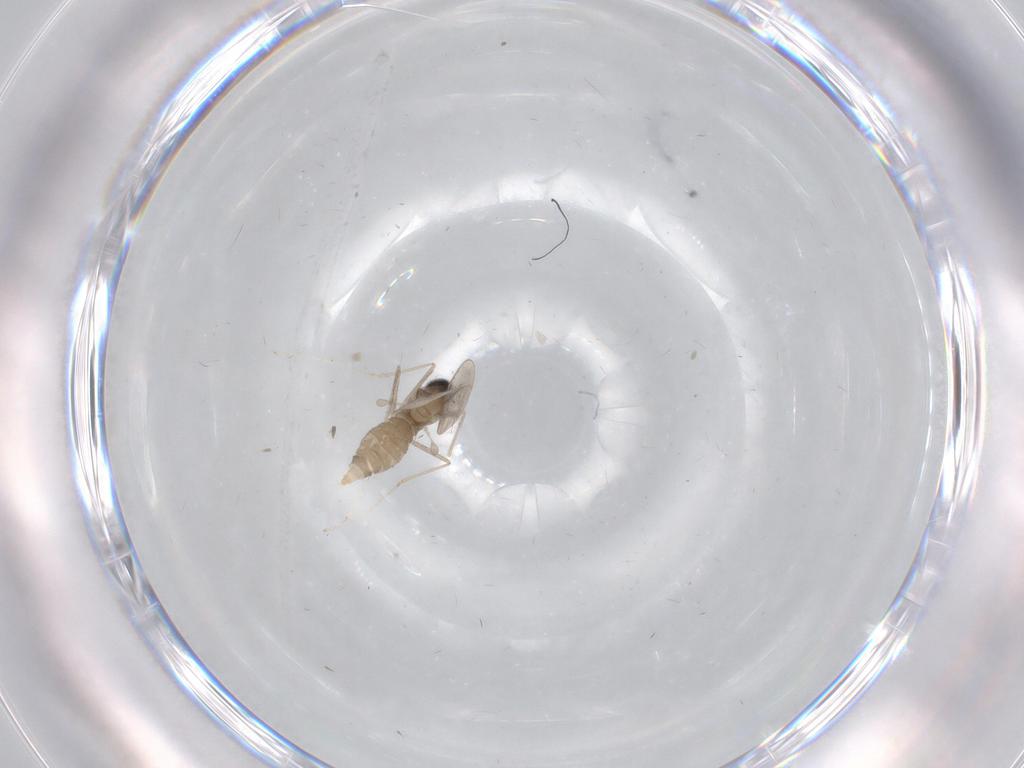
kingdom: Animalia
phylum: Arthropoda
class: Insecta
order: Diptera
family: Cecidomyiidae
